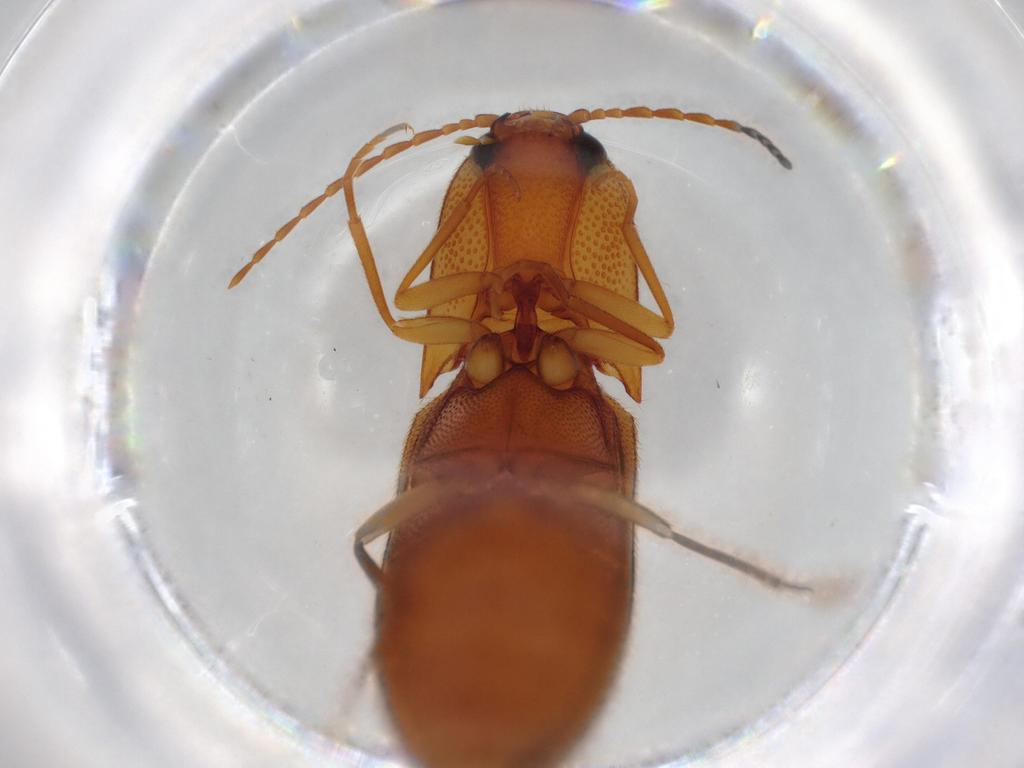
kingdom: Animalia
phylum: Arthropoda
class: Insecta
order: Coleoptera
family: Elateridae
